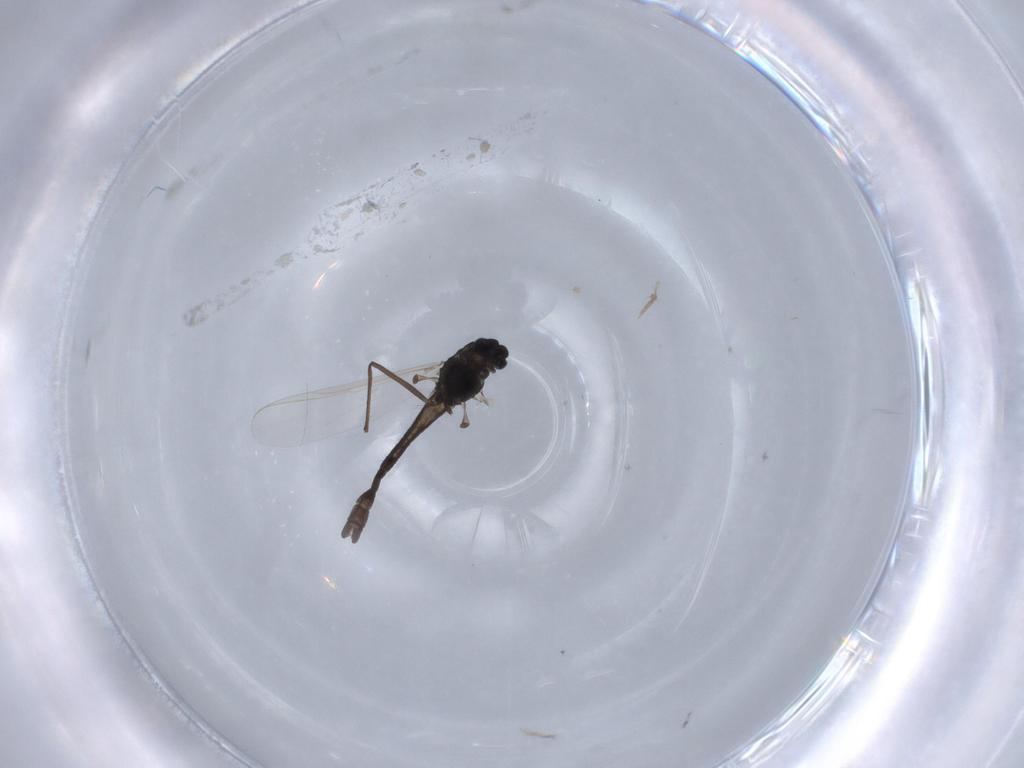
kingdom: Animalia
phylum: Arthropoda
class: Insecta
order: Diptera
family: Chironomidae
